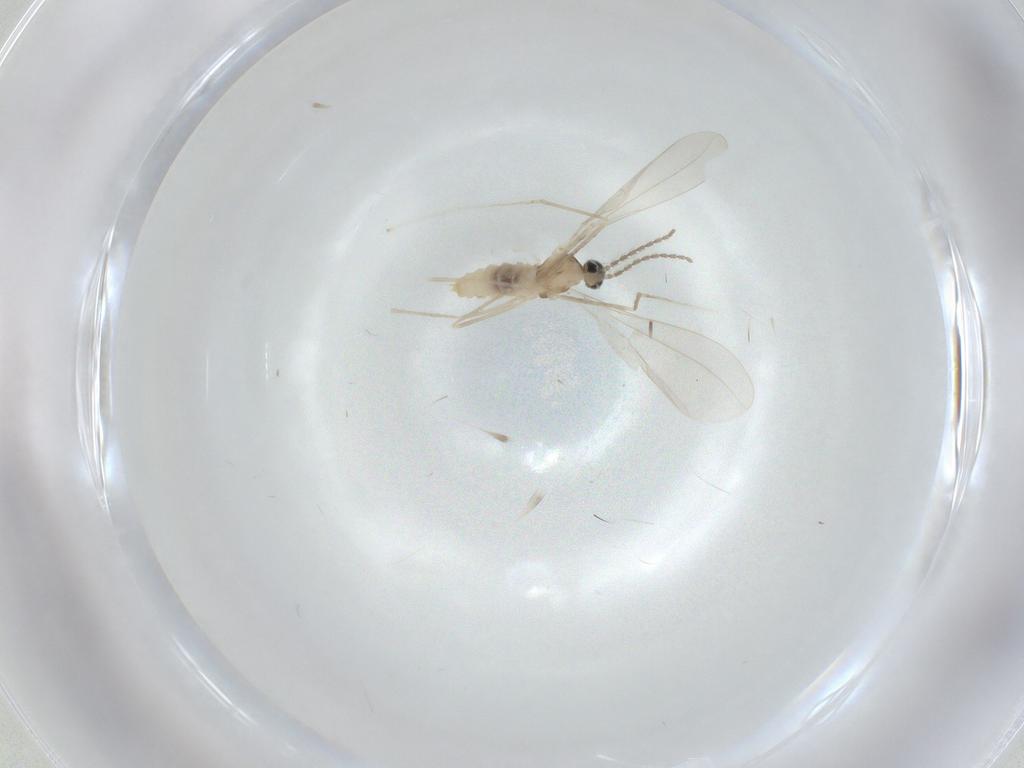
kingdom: Animalia
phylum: Arthropoda
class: Insecta
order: Diptera
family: Cecidomyiidae
